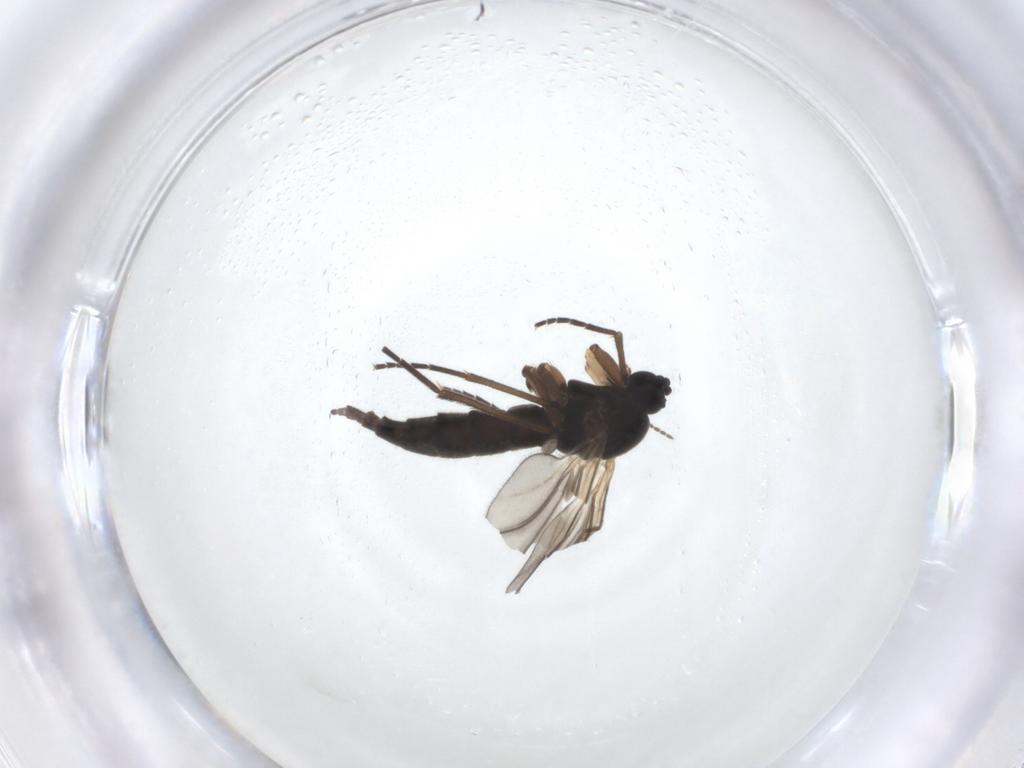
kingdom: Animalia
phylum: Arthropoda
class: Insecta
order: Diptera
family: Sciaridae
